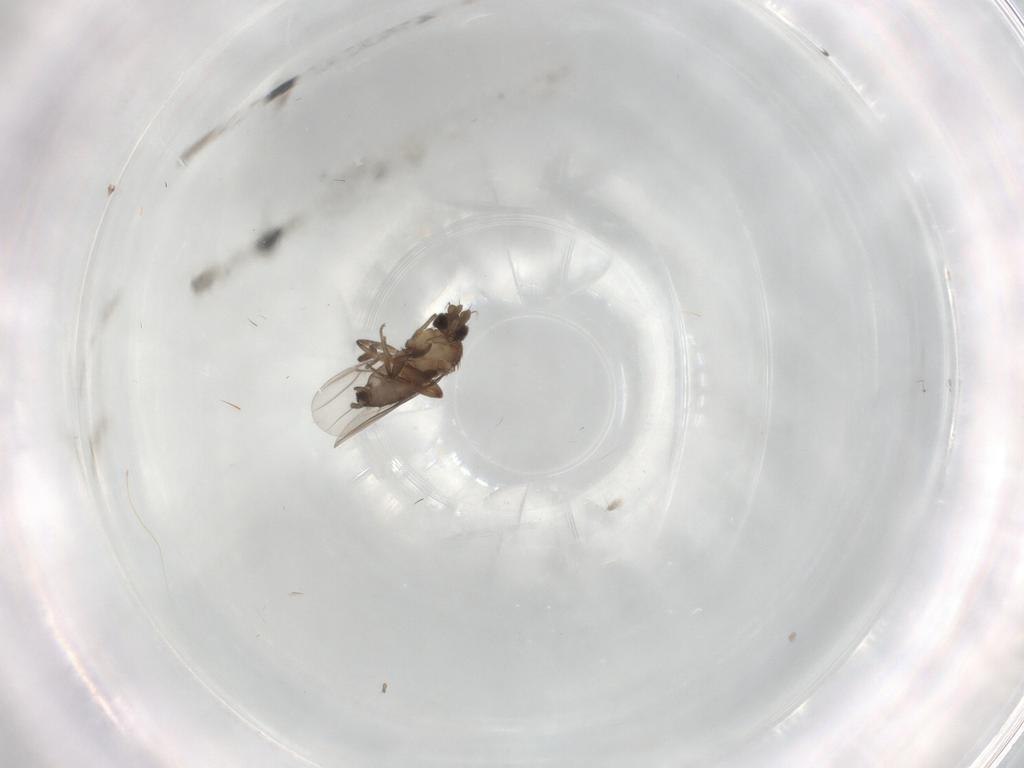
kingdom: Animalia
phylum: Arthropoda
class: Insecta
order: Diptera
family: Phoridae
